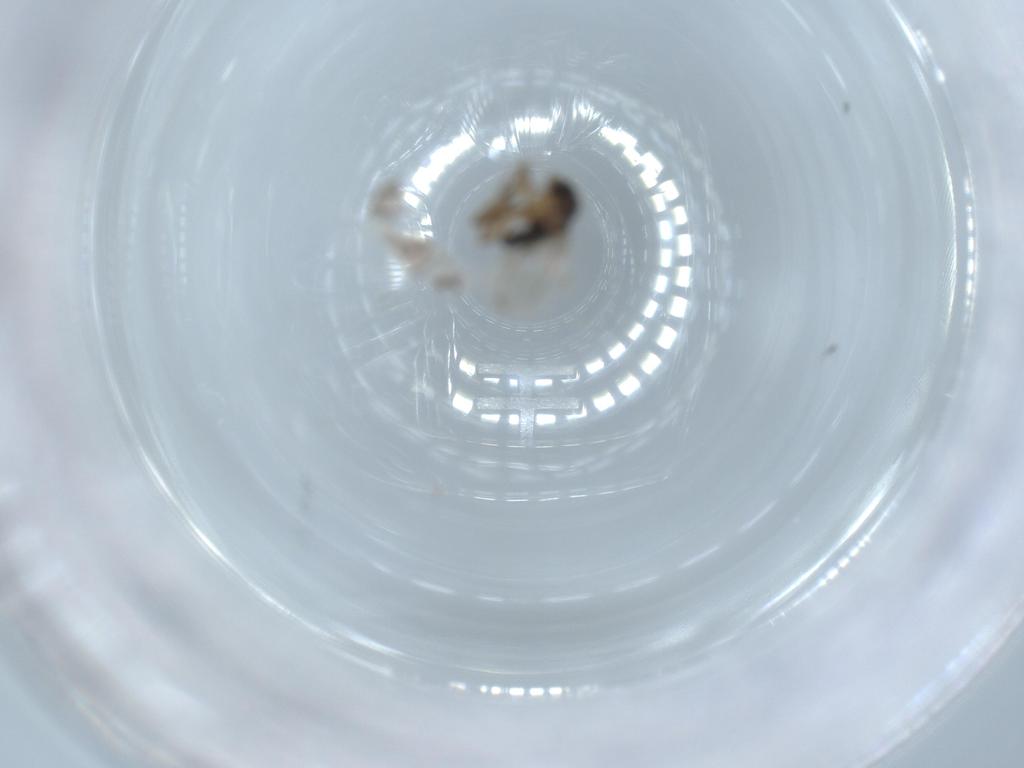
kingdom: Animalia
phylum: Arthropoda
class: Insecta
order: Diptera
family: Phoridae
